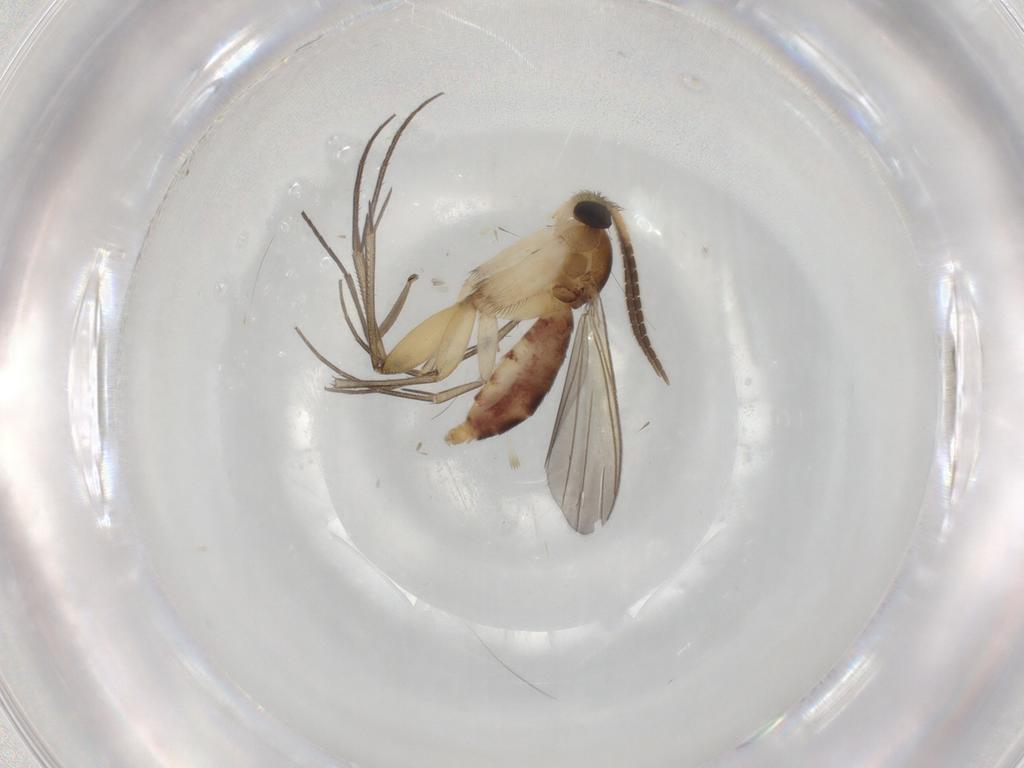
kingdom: Animalia
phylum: Arthropoda
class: Insecta
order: Diptera
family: Mycetophilidae
